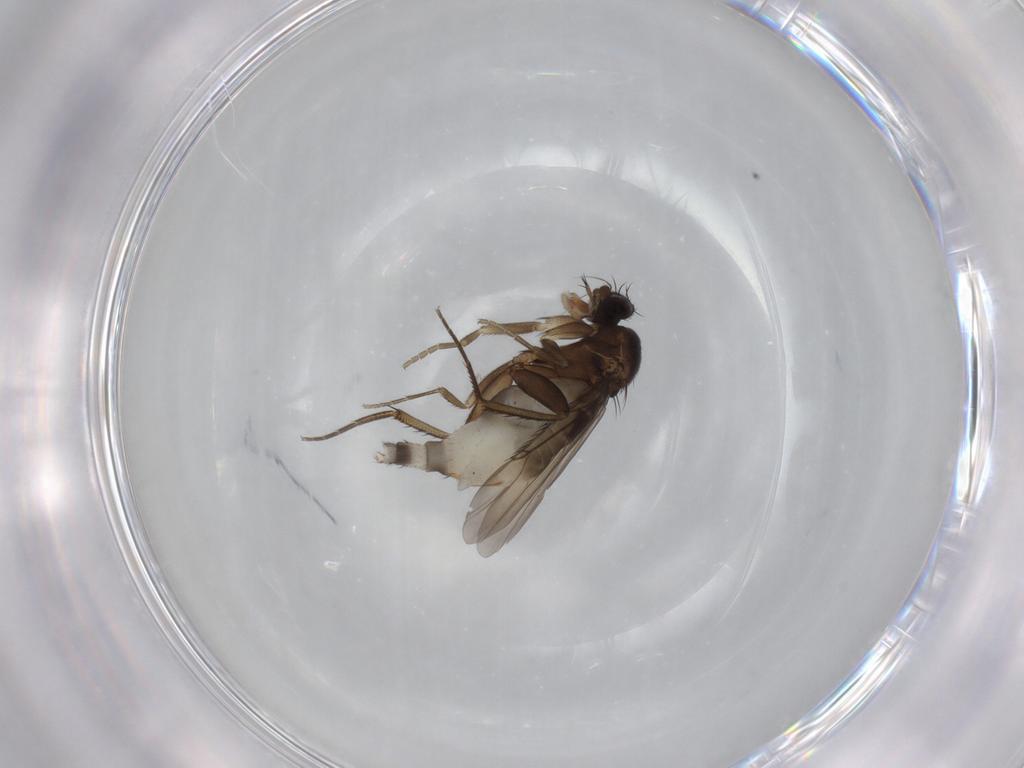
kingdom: Animalia
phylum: Arthropoda
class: Insecta
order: Diptera
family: Phoridae
